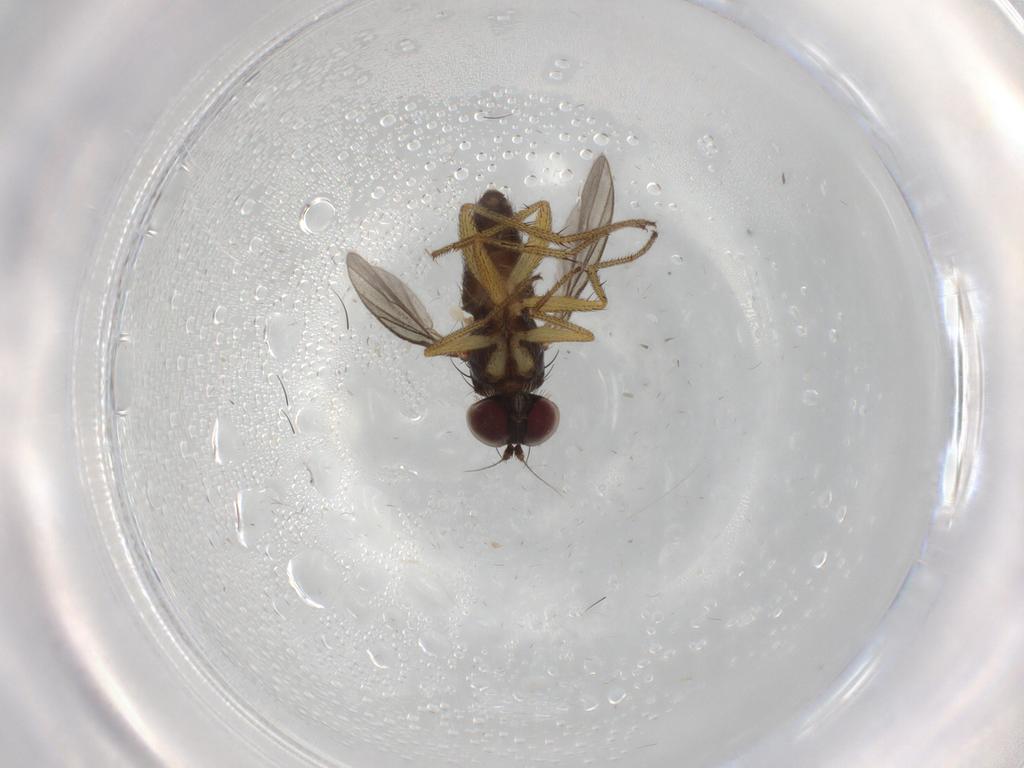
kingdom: Animalia
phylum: Arthropoda
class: Insecta
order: Diptera
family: Dolichopodidae
